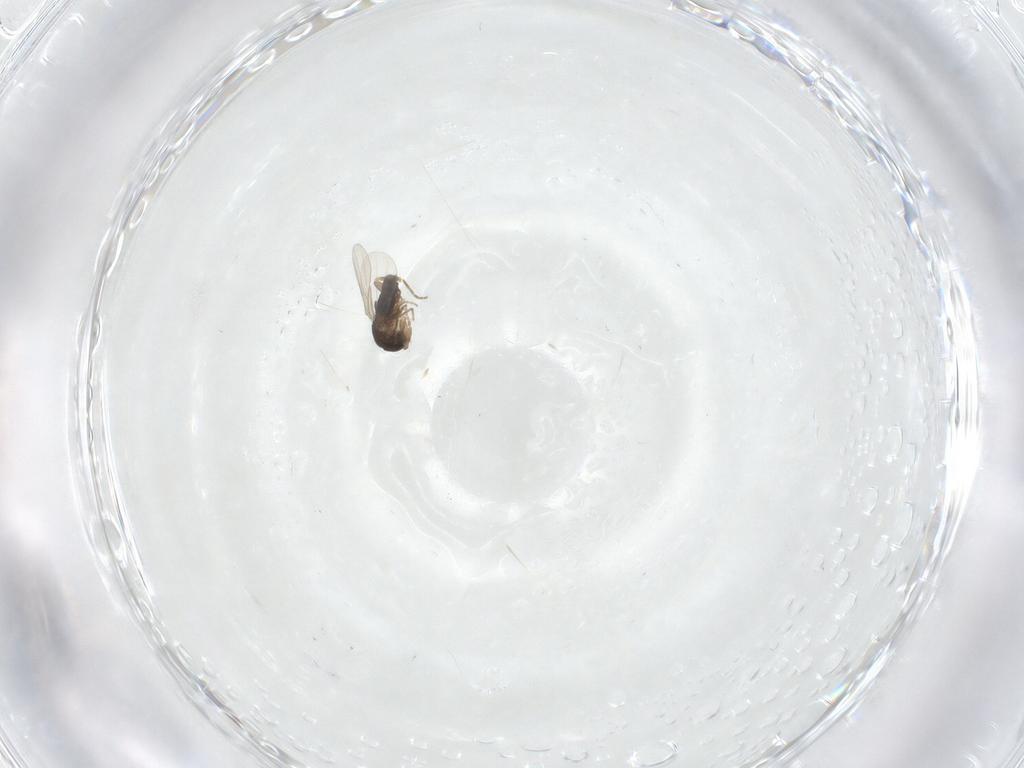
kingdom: Animalia
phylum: Arthropoda
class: Insecta
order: Diptera
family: Phoridae
